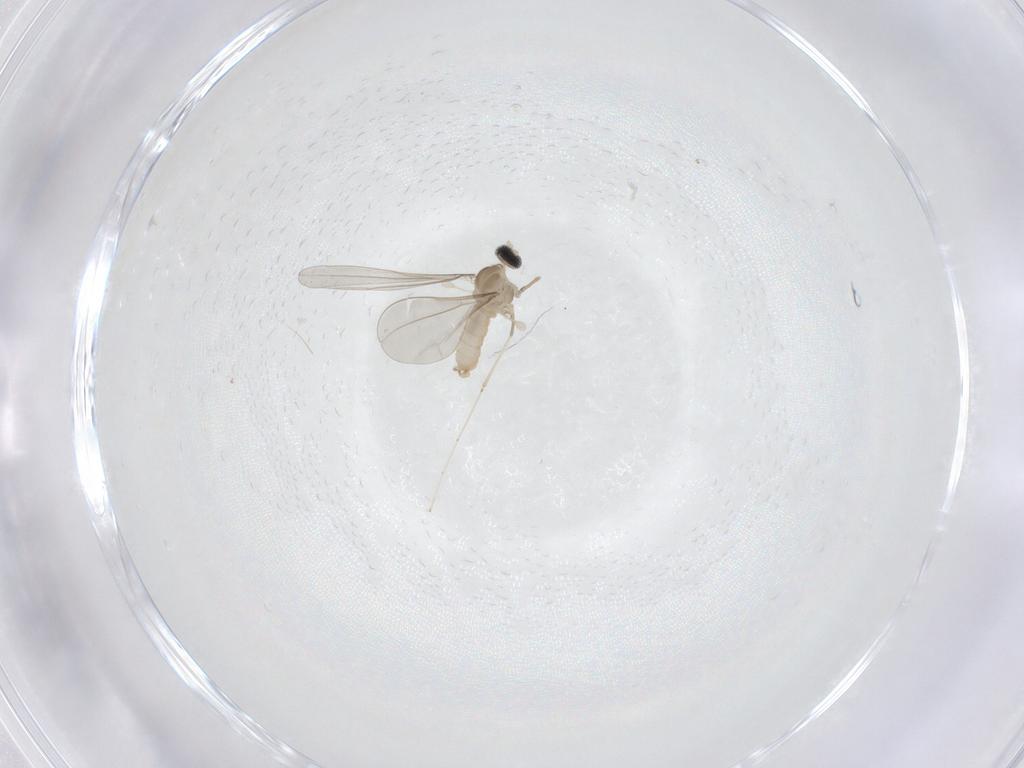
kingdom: Animalia
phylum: Arthropoda
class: Insecta
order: Diptera
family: Cecidomyiidae
